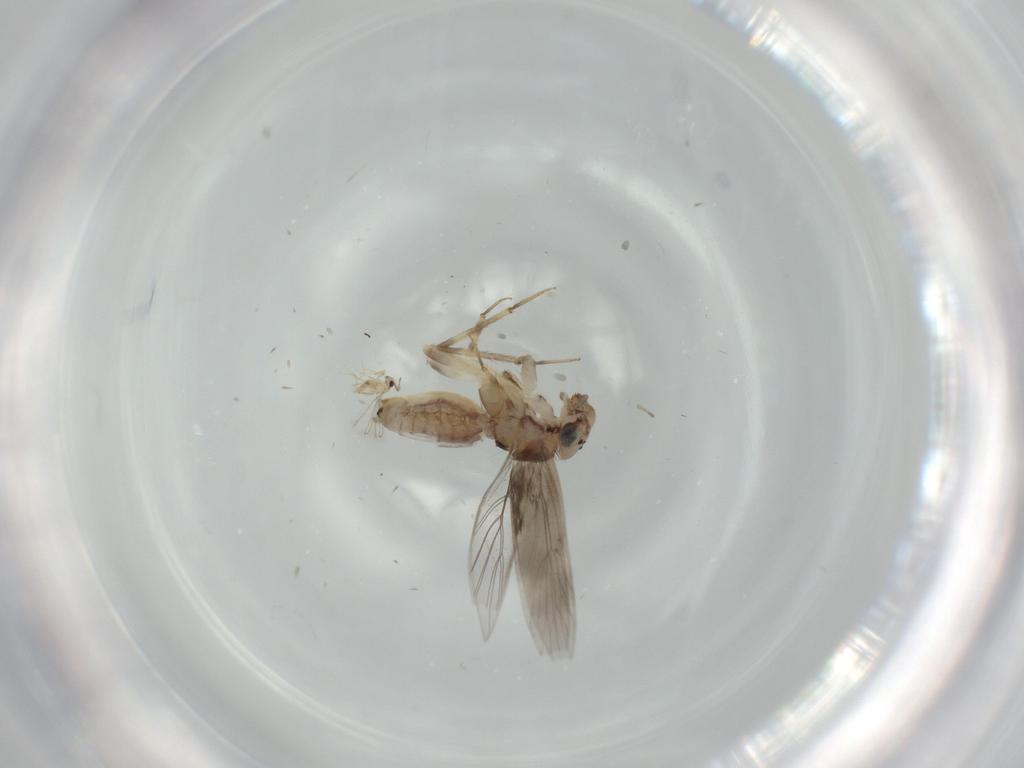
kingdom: Animalia
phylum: Arthropoda
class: Insecta
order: Psocodea
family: Lepidopsocidae
